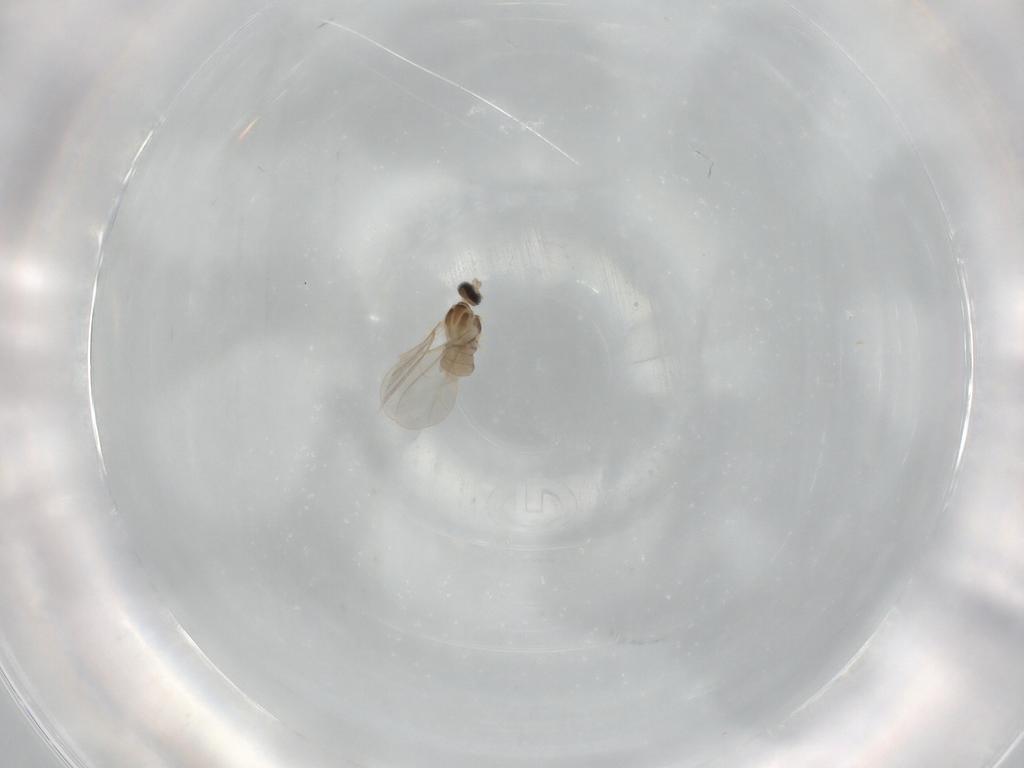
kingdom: Animalia
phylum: Arthropoda
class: Insecta
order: Diptera
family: Cecidomyiidae
